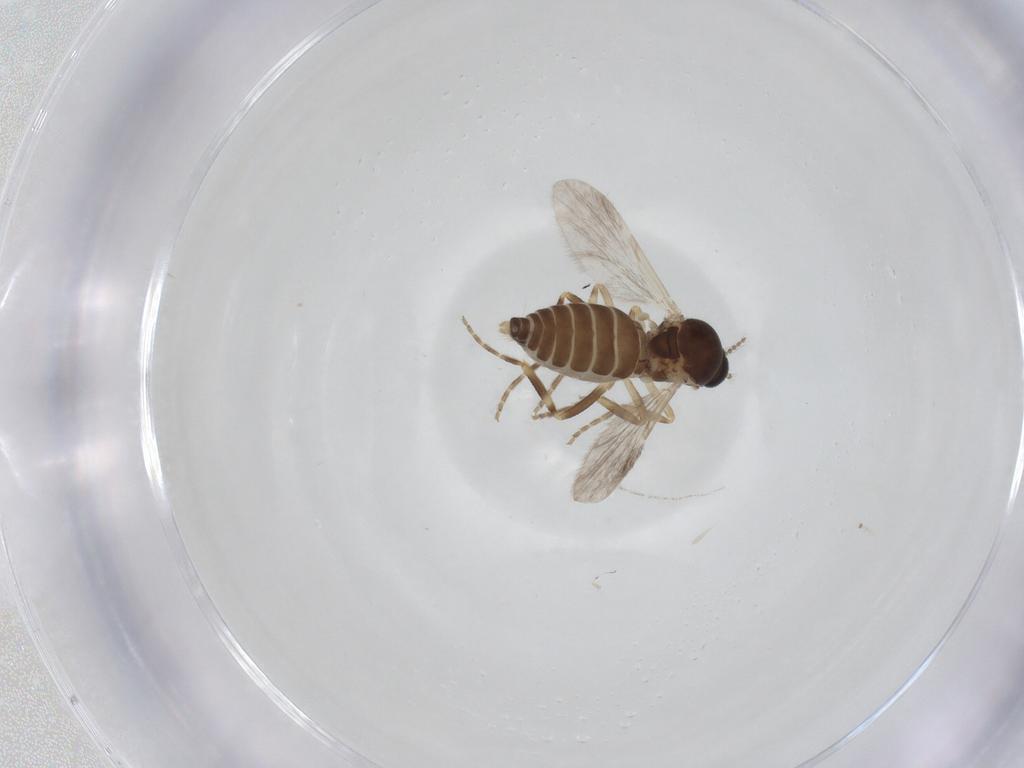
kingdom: Animalia
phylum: Arthropoda
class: Insecta
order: Diptera
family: Ceratopogonidae
